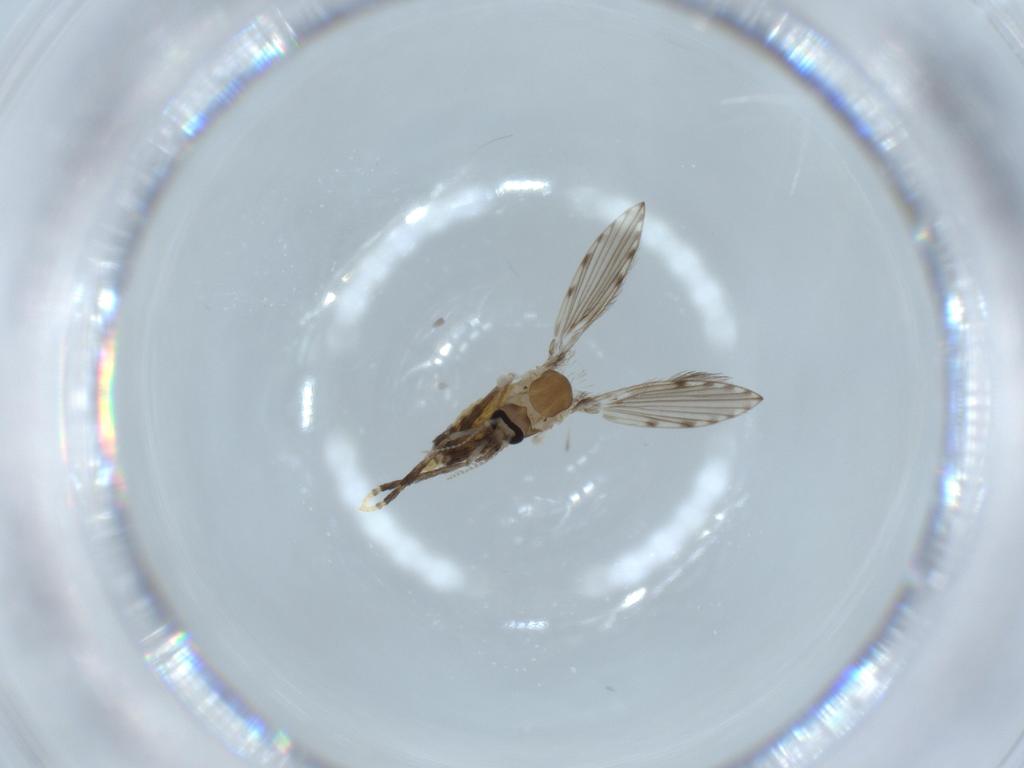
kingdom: Animalia
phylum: Arthropoda
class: Insecta
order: Diptera
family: Psychodidae
